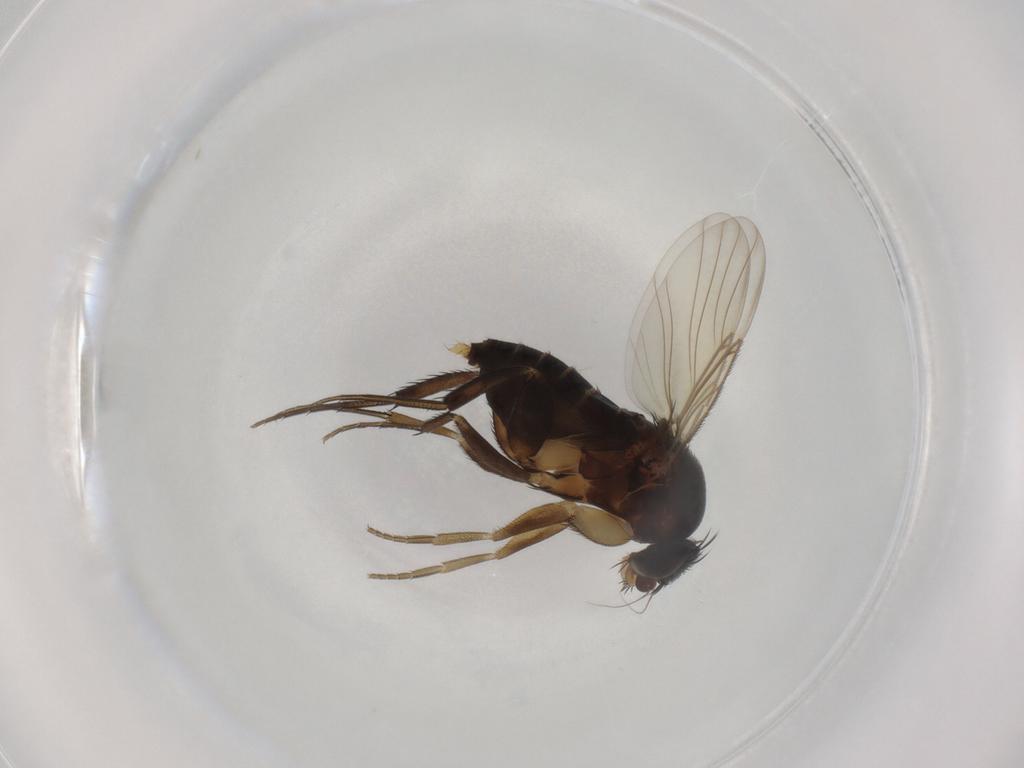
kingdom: Animalia
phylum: Arthropoda
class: Insecta
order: Diptera
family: Phoridae
